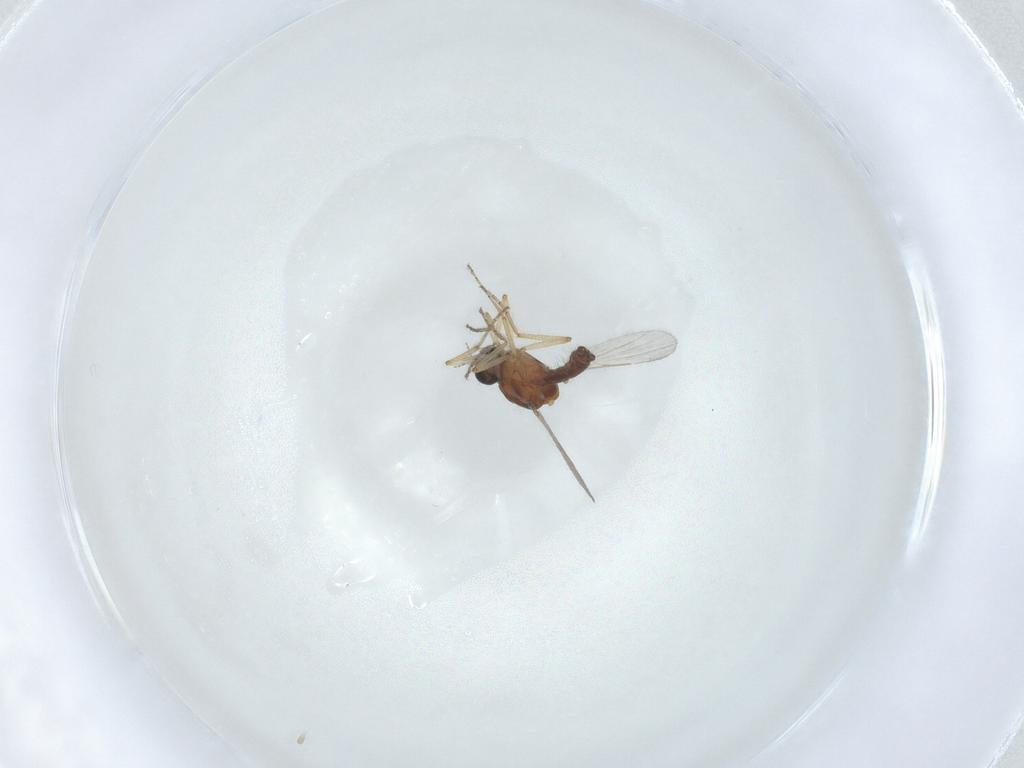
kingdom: Animalia
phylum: Arthropoda
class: Insecta
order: Diptera
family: Ceratopogonidae
